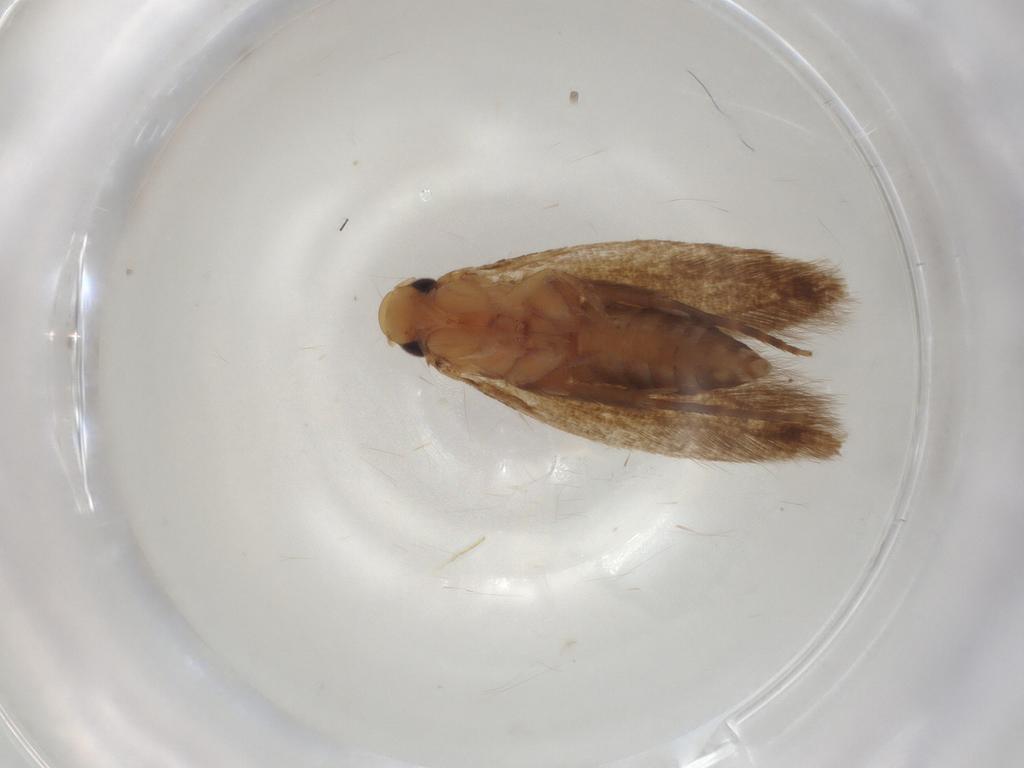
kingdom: Animalia
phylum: Arthropoda
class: Insecta
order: Lepidoptera
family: Tineidae
